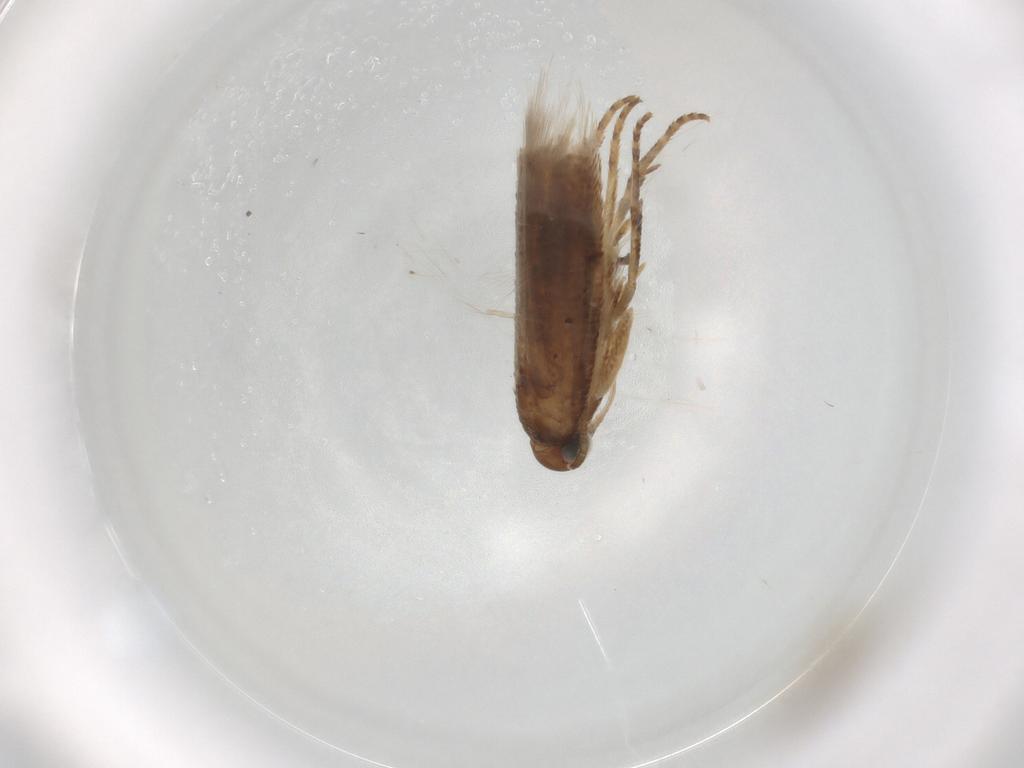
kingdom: Animalia
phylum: Arthropoda
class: Insecta
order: Lepidoptera
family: Gelechiidae
